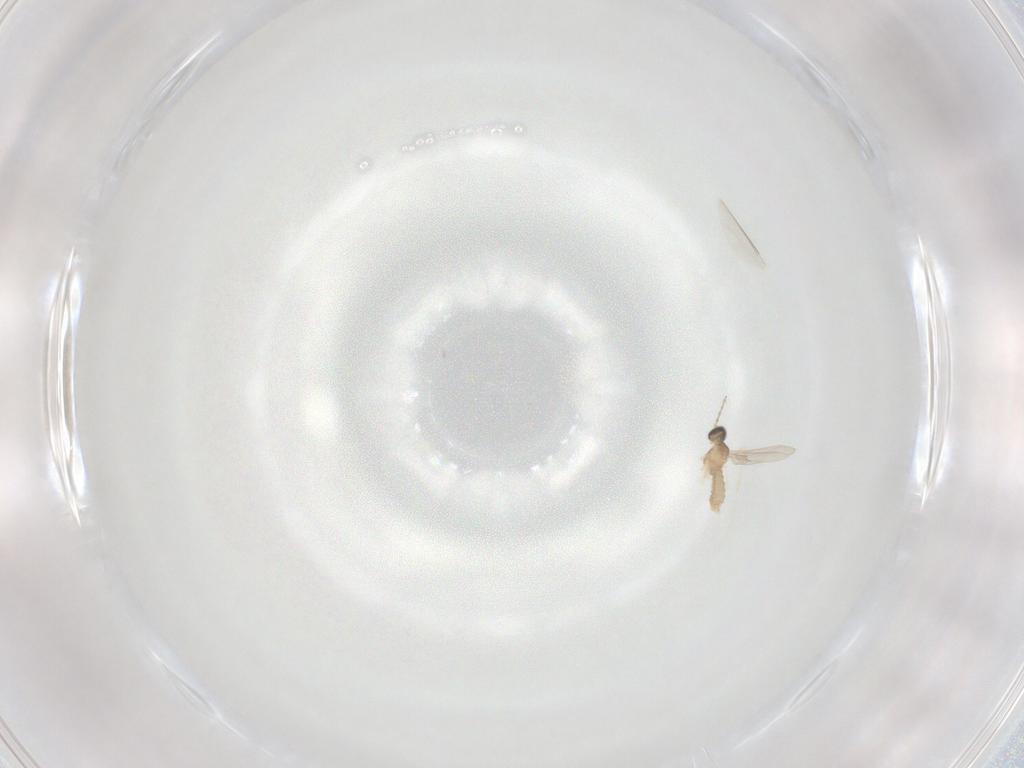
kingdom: Animalia
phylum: Arthropoda
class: Insecta
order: Diptera
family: Cecidomyiidae
